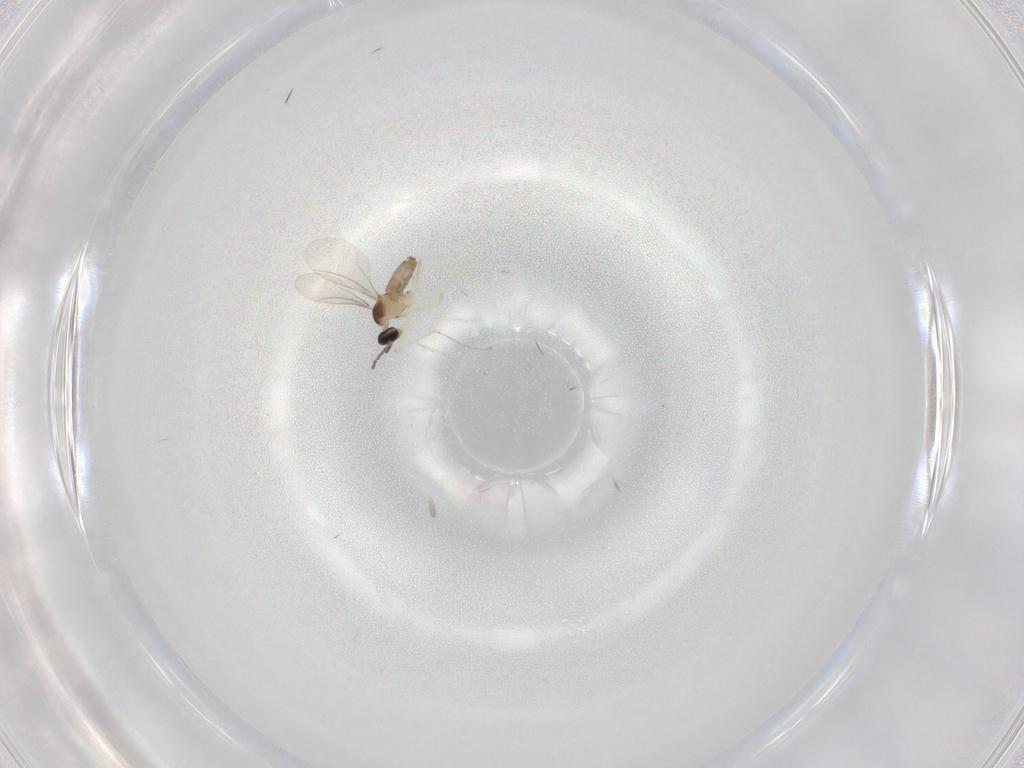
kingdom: Animalia
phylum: Arthropoda
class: Insecta
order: Diptera
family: Cecidomyiidae
